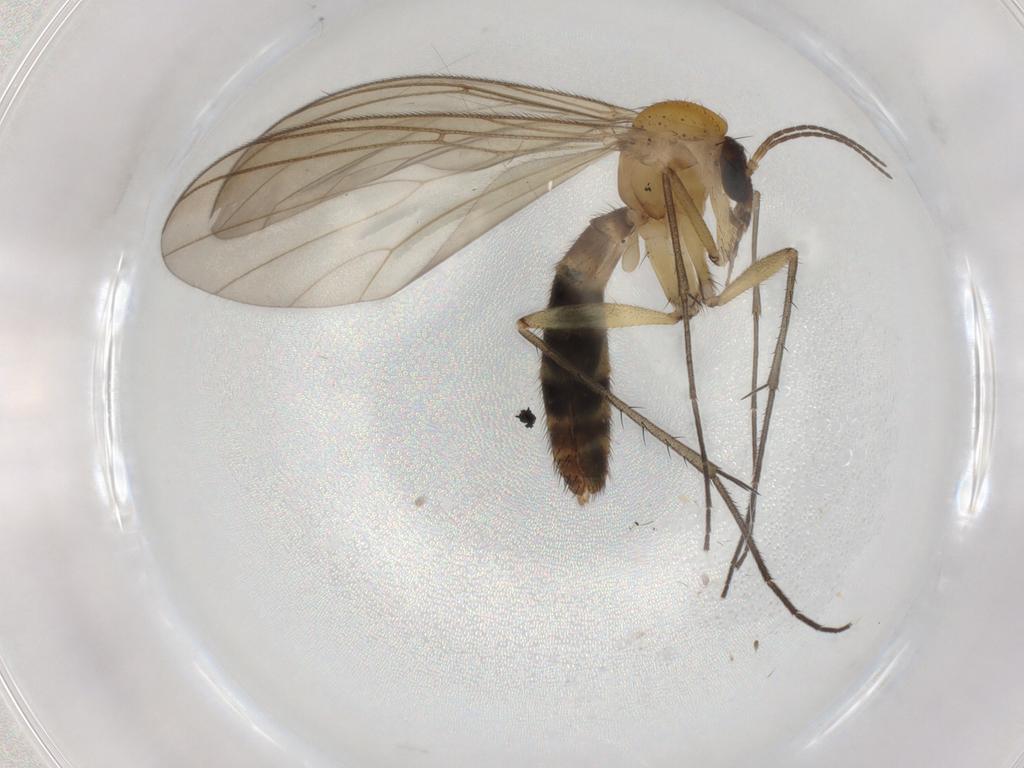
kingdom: Animalia
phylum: Arthropoda
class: Insecta
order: Diptera
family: Mycetophilidae
